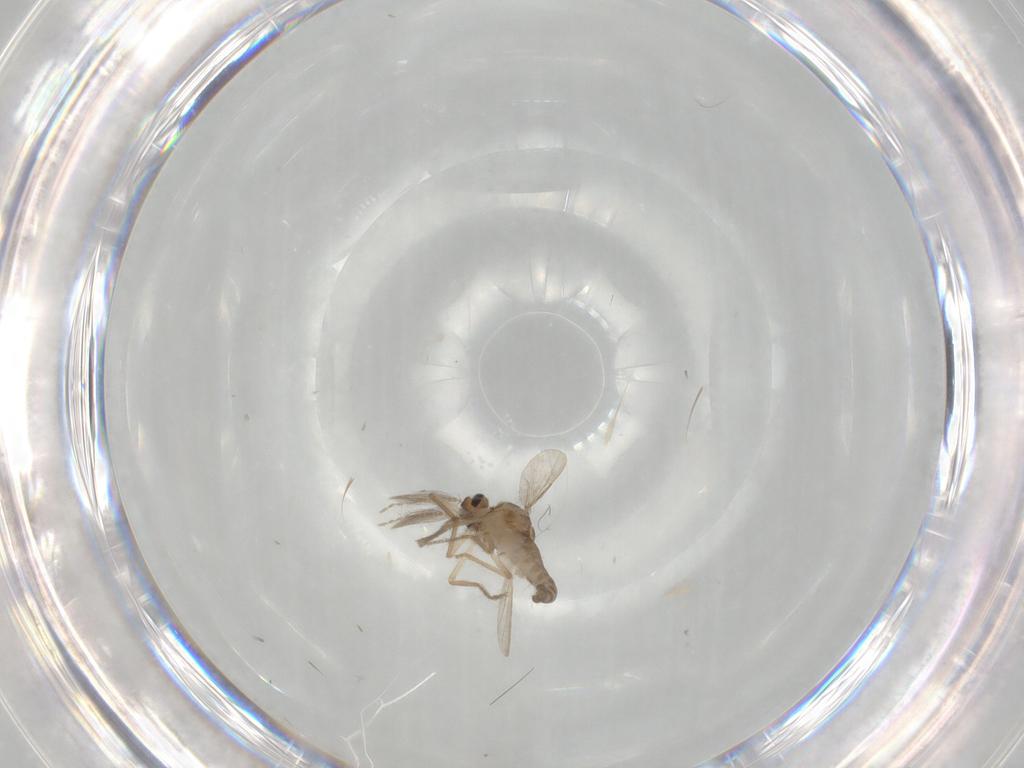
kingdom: Animalia
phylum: Arthropoda
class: Insecta
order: Diptera
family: Ceratopogonidae
